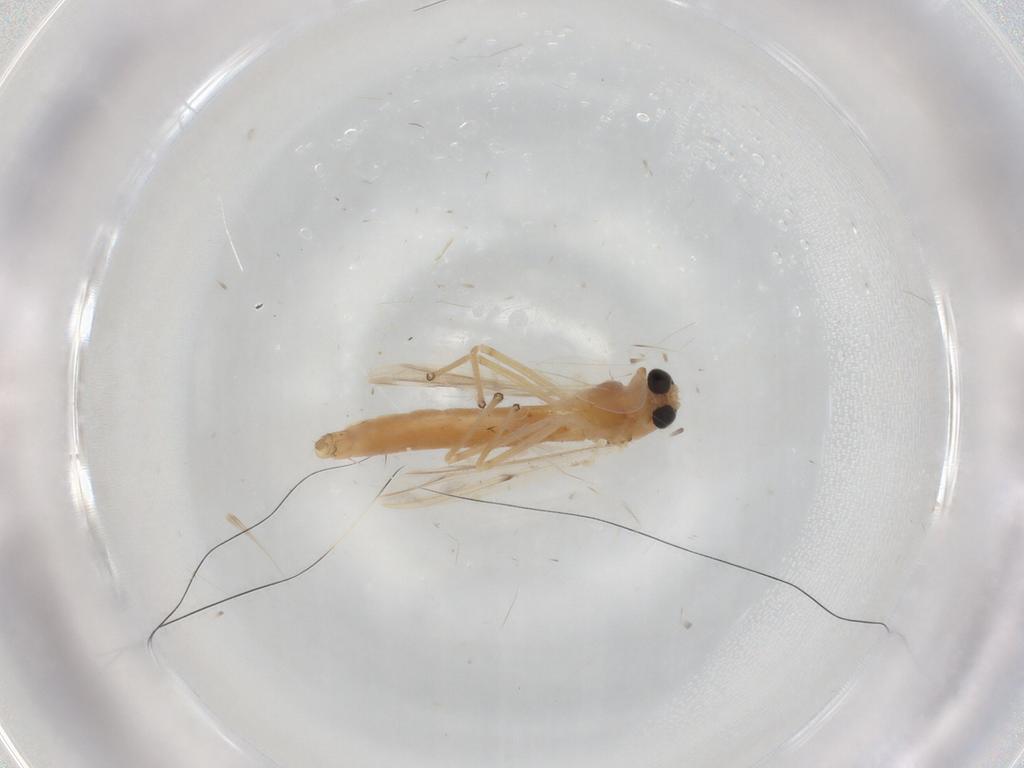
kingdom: Animalia
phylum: Arthropoda
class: Insecta
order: Diptera
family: Chironomidae
